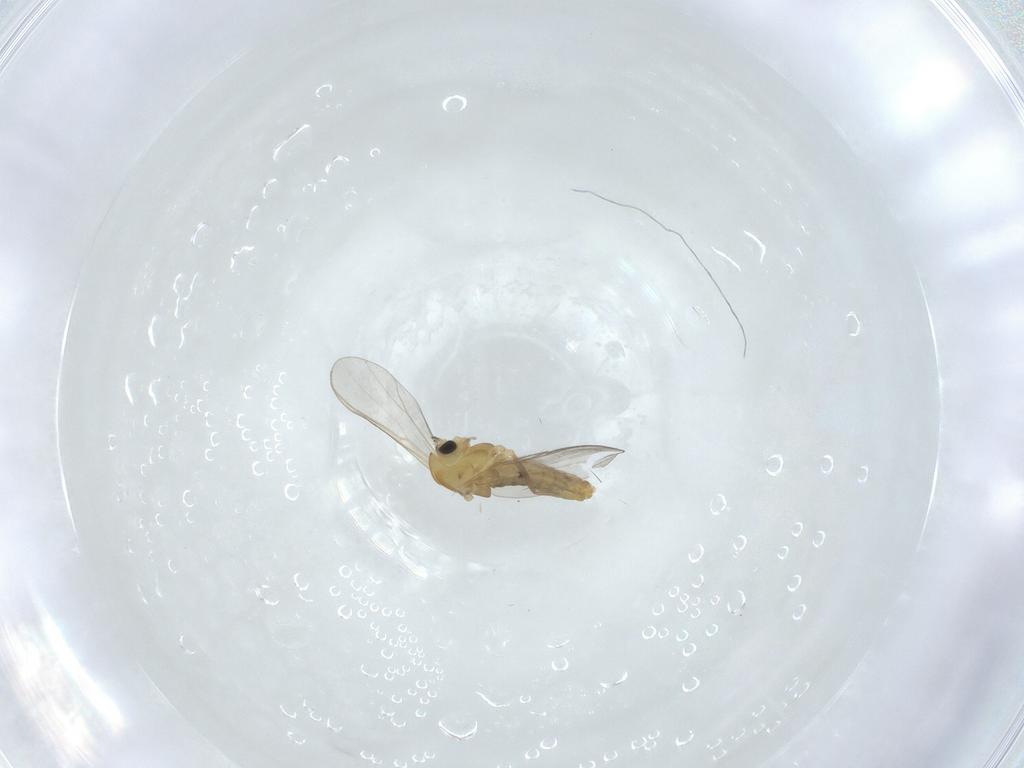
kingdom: Animalia
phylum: Arthropoda
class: Insecta
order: Diptera
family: Chironomidae
